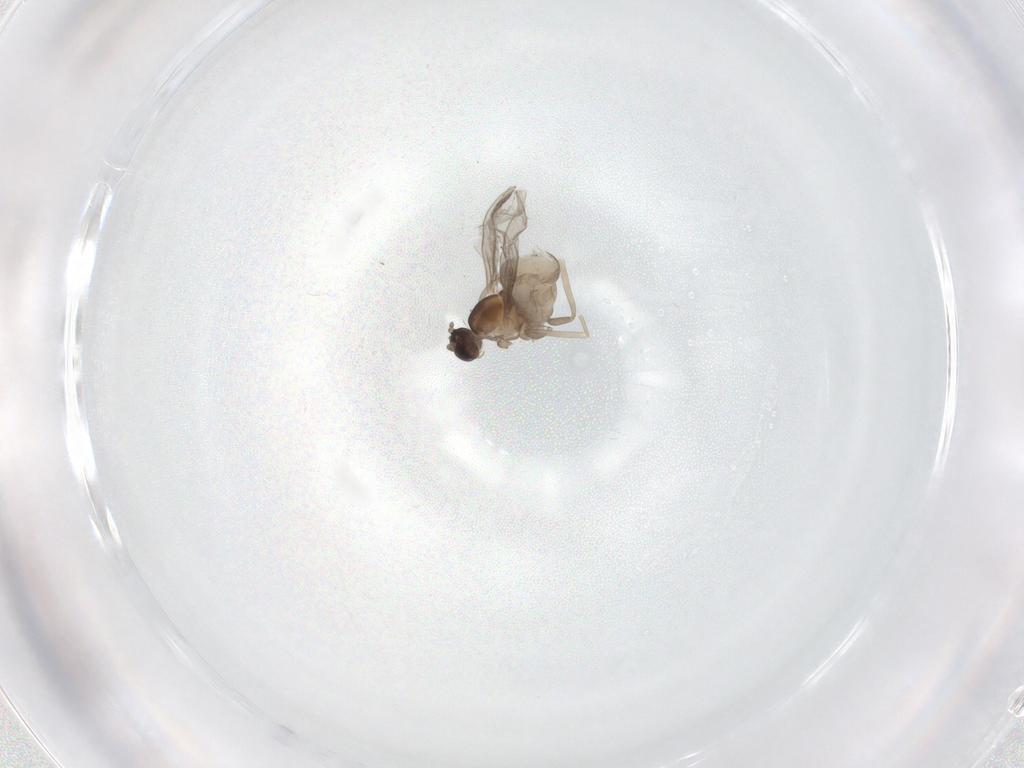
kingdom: Animalia
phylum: Arthropoda
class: Insecta
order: Diptera
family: Cecidomyiidae
